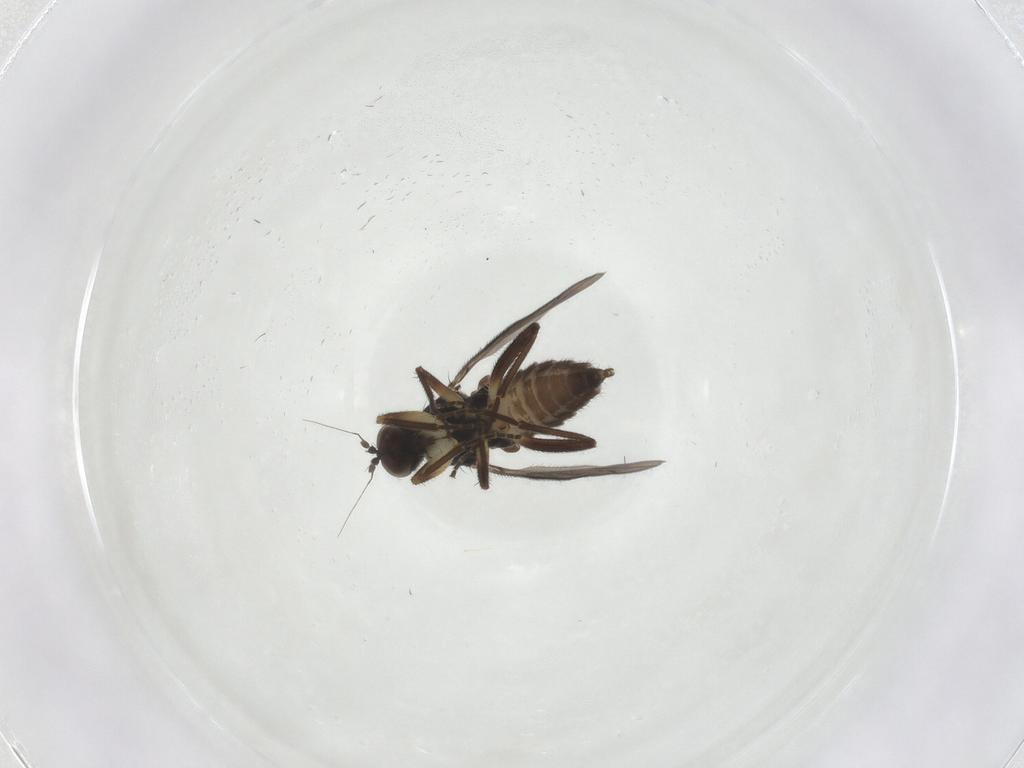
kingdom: Animalia
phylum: Arthropoda
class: Insecta
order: Diptera
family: Hybotidae
